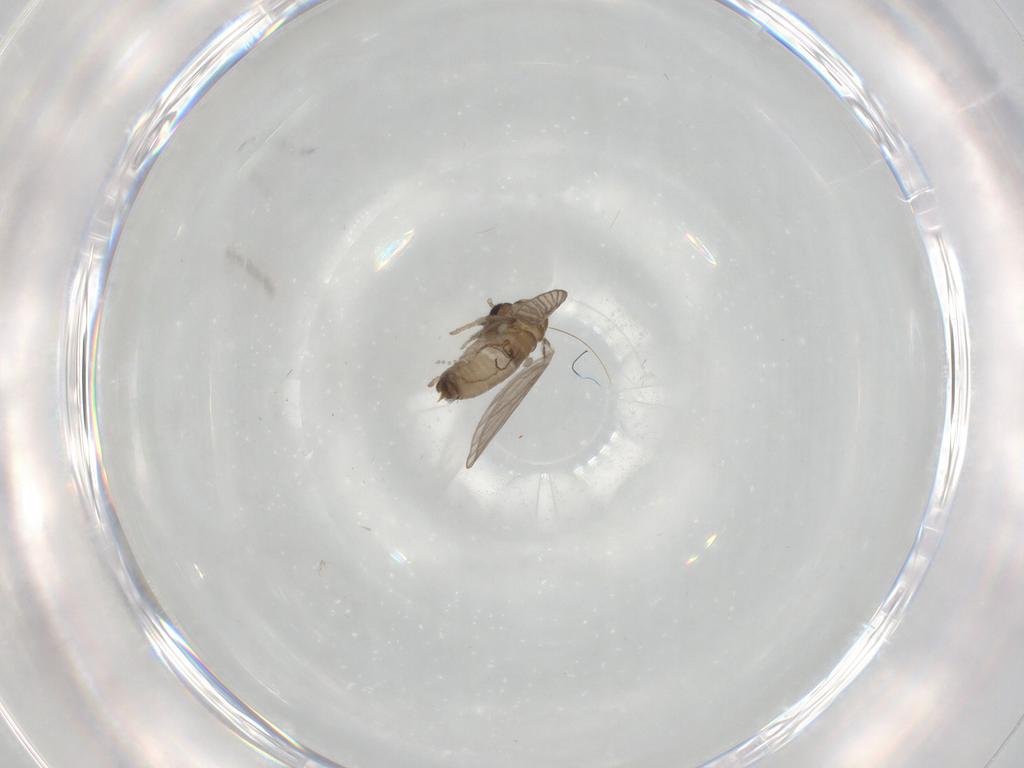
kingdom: Animalia
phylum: Arthropoda
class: Insecta
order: Diptera
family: Psychodidae
